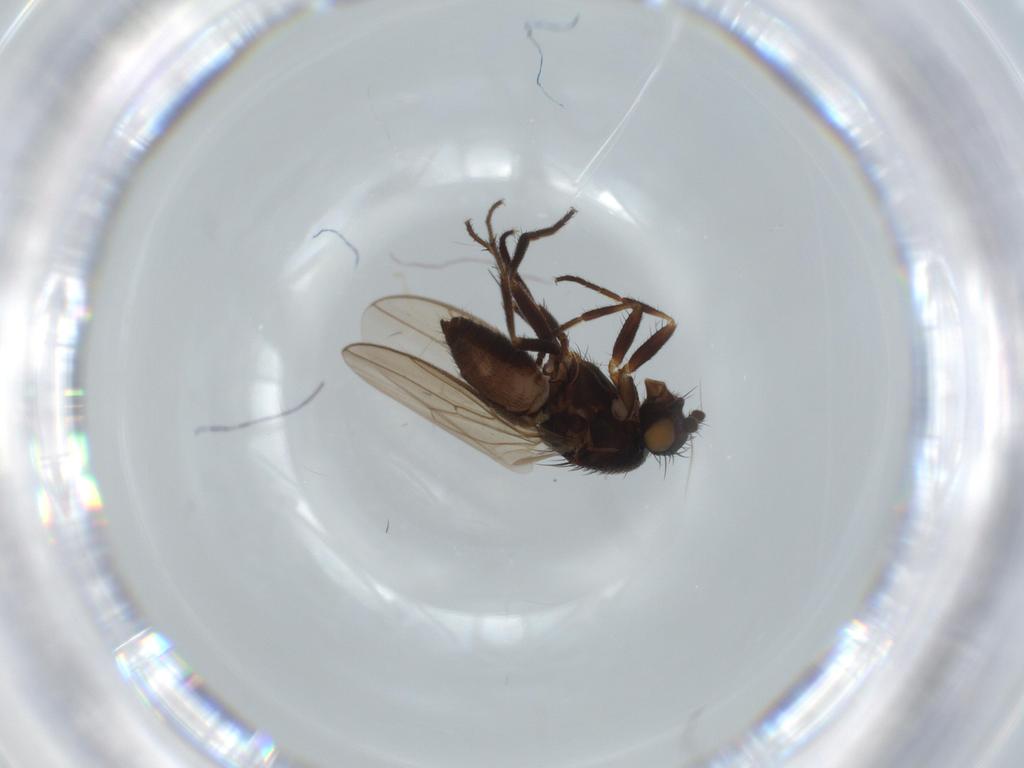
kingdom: Animalia
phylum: Arthropoda
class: Insecta
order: Diptera
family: Sphaeroceridae
